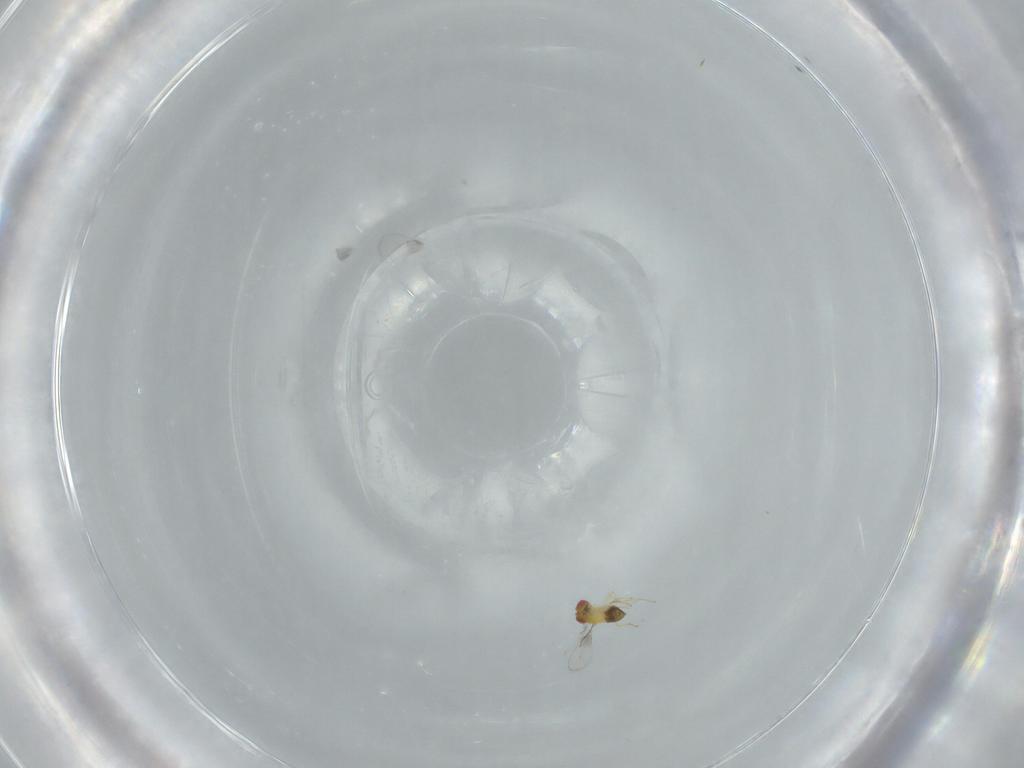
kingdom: Animalia
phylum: Arthropoda
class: Insecta
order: Hymenoptera
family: Trichogrammatidae
